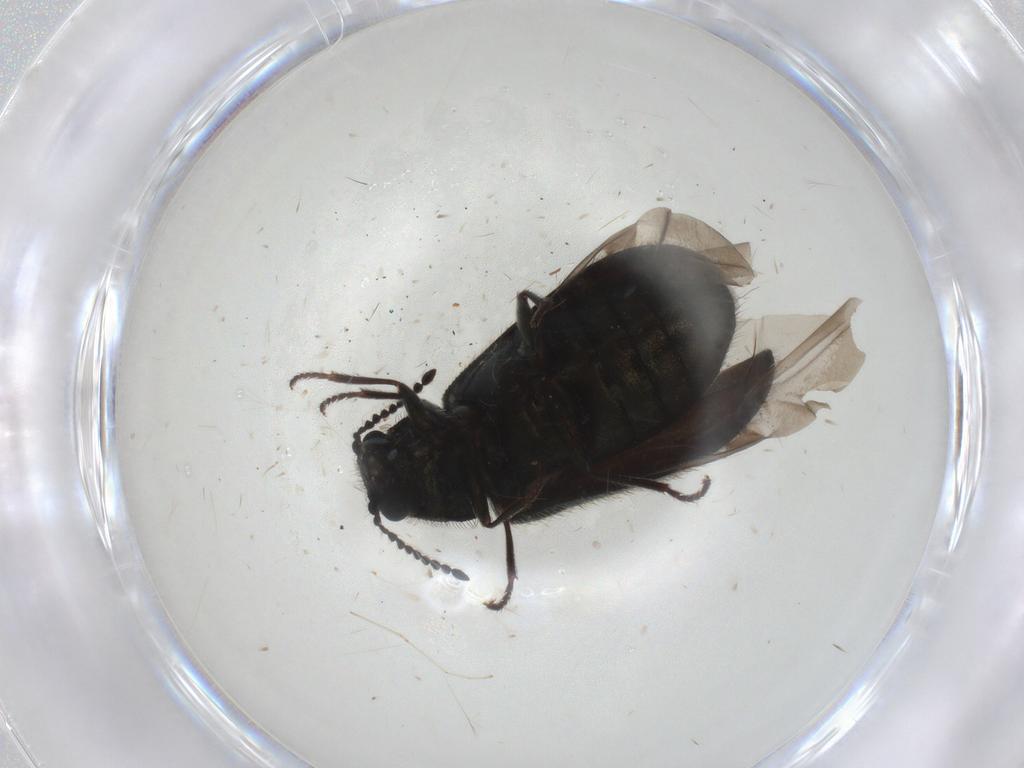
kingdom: Animalia
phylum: Arthropoda
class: Insecta
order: Coleoptera
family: Melyridae
